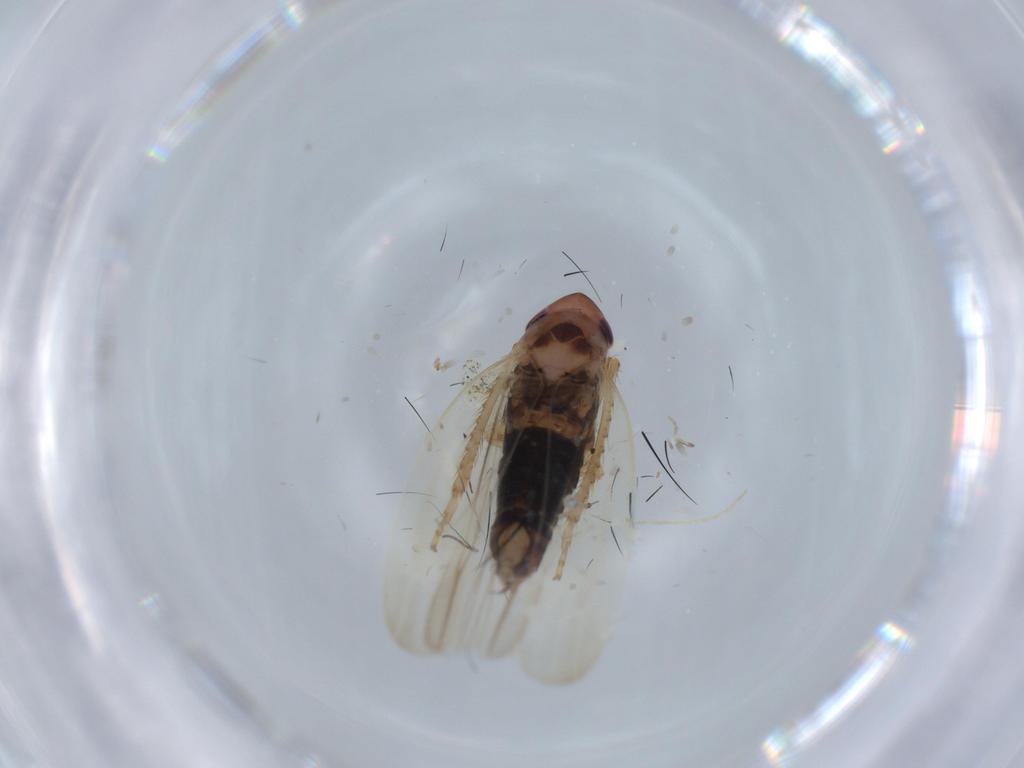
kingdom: Animalia
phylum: Arthropoda
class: Insecta
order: Hemiptera
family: Cicadellidae
